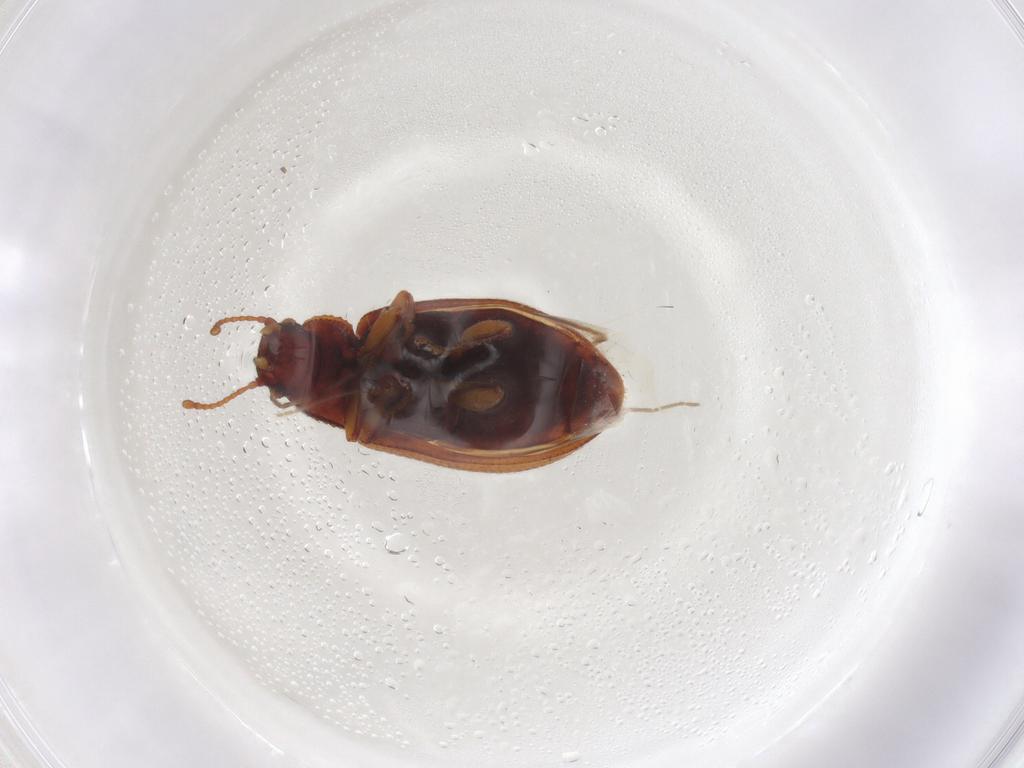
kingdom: Animalia
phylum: Arthropoda
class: Insecta
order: Coleoptera
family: Tenebrionidae
